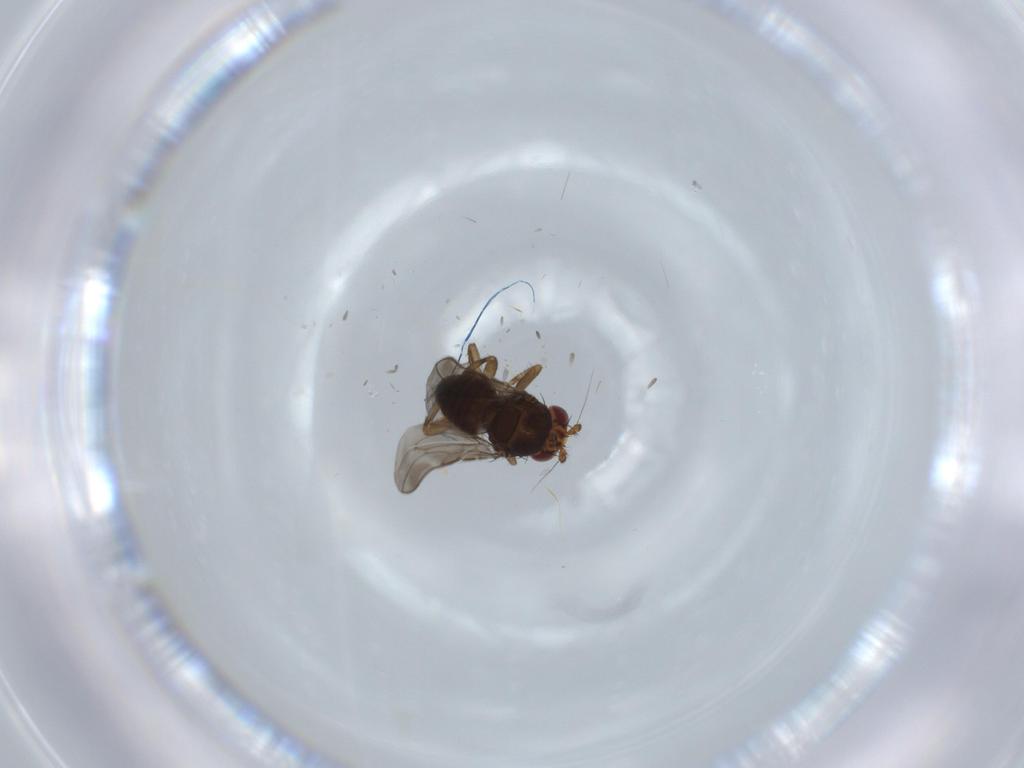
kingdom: Animalia
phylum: Arthropoda
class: Insecta
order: Diptera
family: Sphaeroceridae
